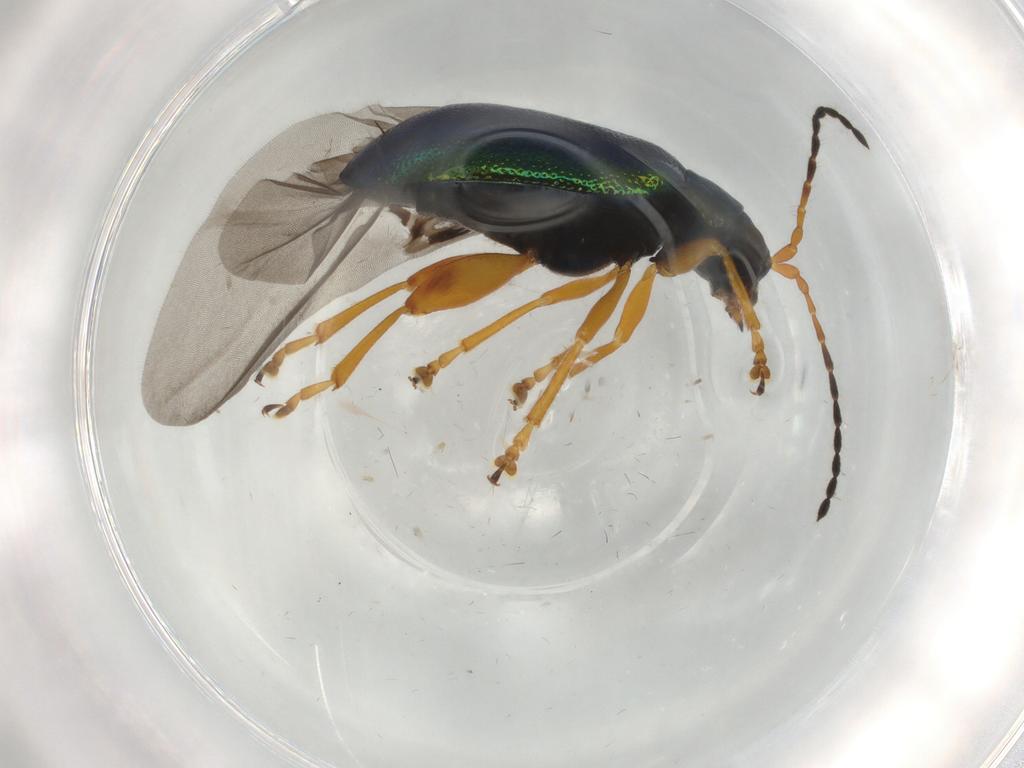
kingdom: Animalia
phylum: Arthropoda
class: Insecta
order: Coleoptera
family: Chrysomelidae
